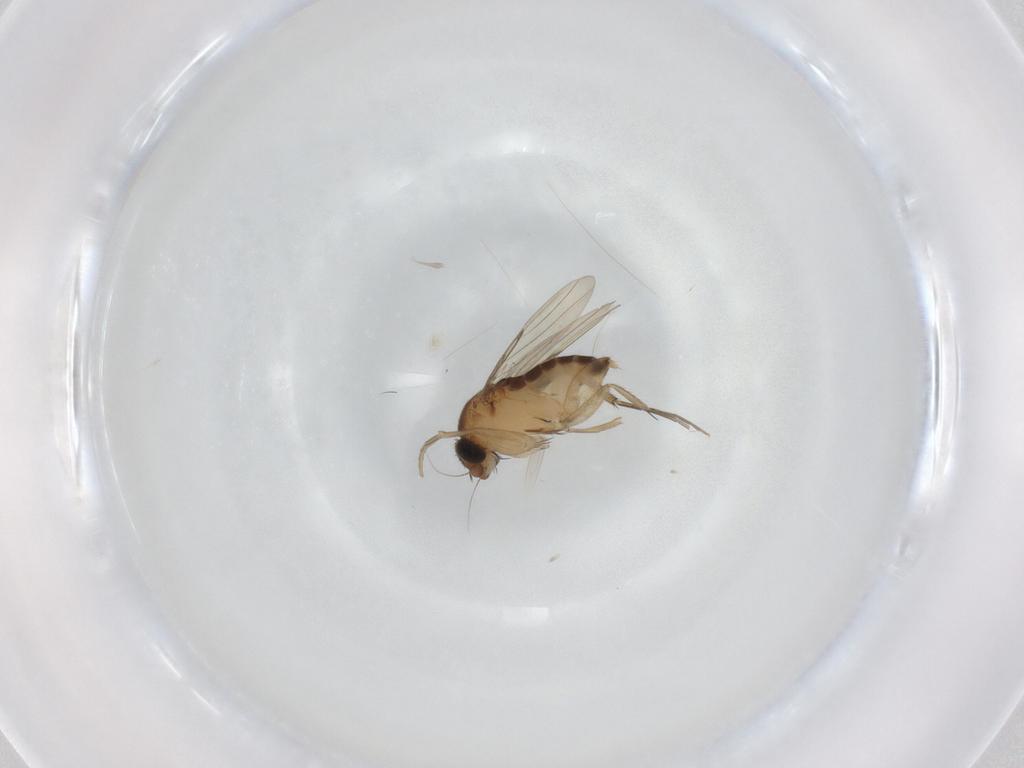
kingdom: Animalia
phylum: Arthropoda
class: Insecta
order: Diptera
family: Phoridae
